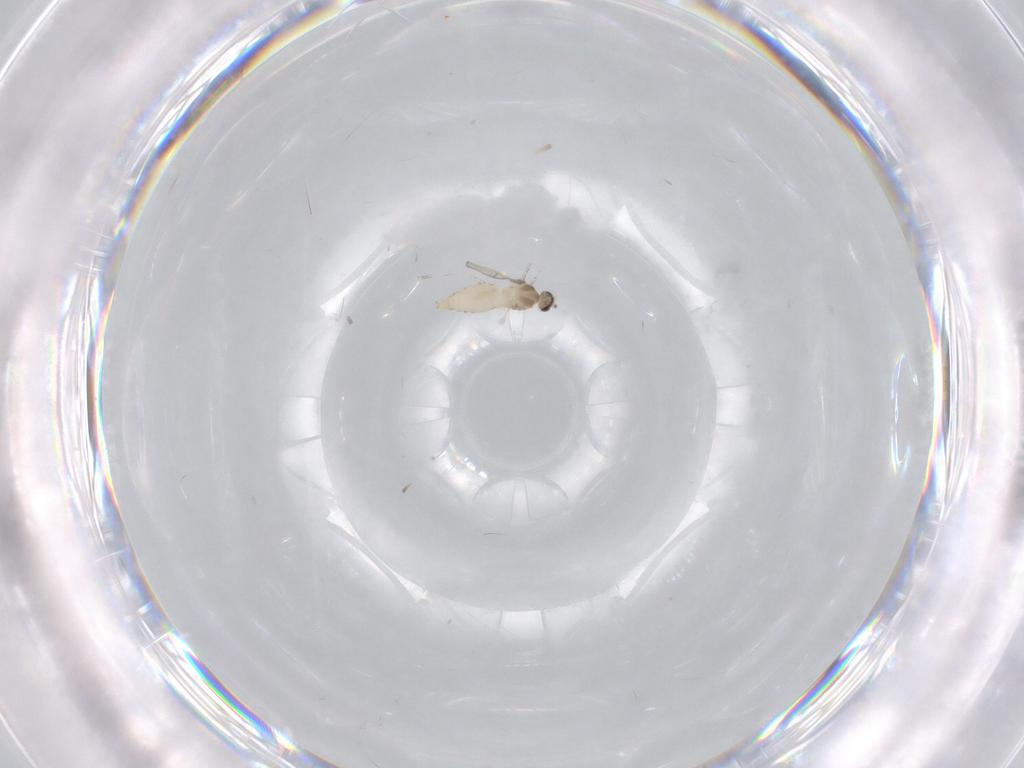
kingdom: Animalia
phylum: Arthropoda
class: Insecta
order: Diptera
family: Cecidomyiidae
